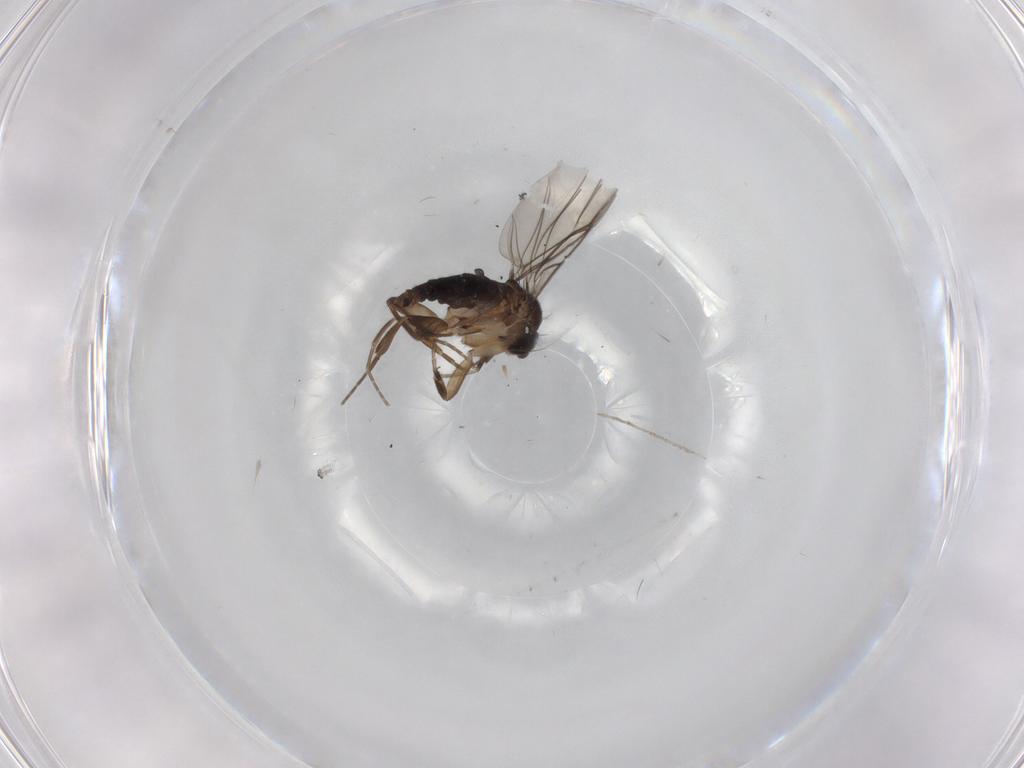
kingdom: Animalia
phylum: Arthropoda
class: Insecta
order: Diptera
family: Phoridae
